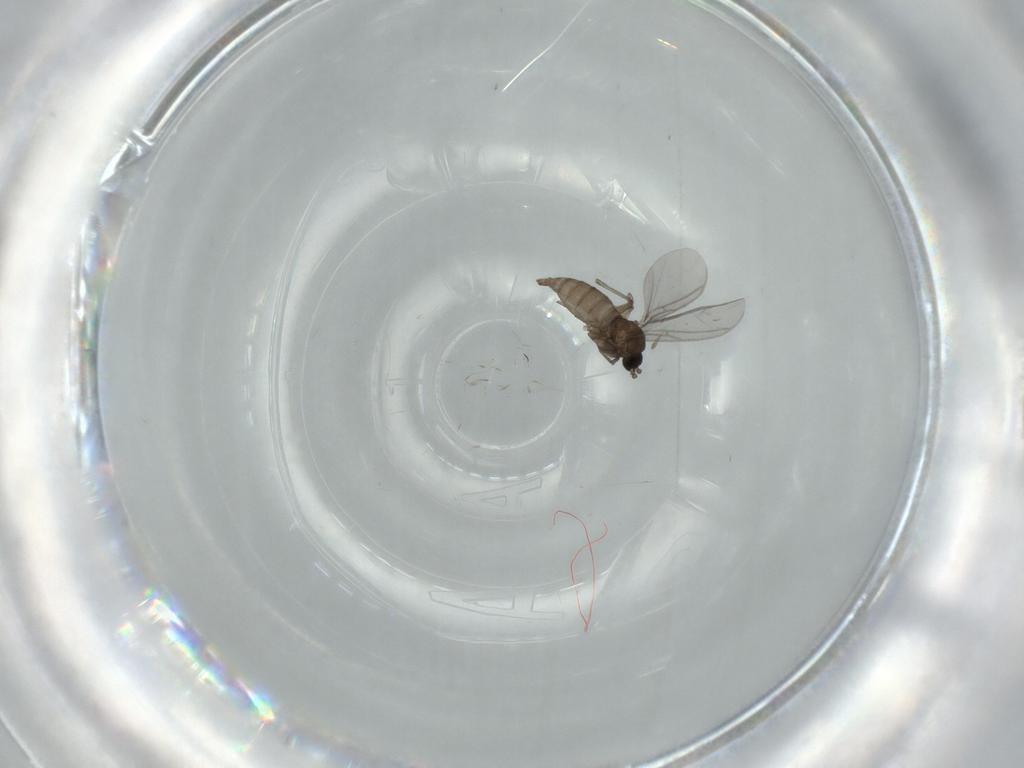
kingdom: Animalia
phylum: Arthropoda
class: Insecta
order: Diptera
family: Sciaridae
